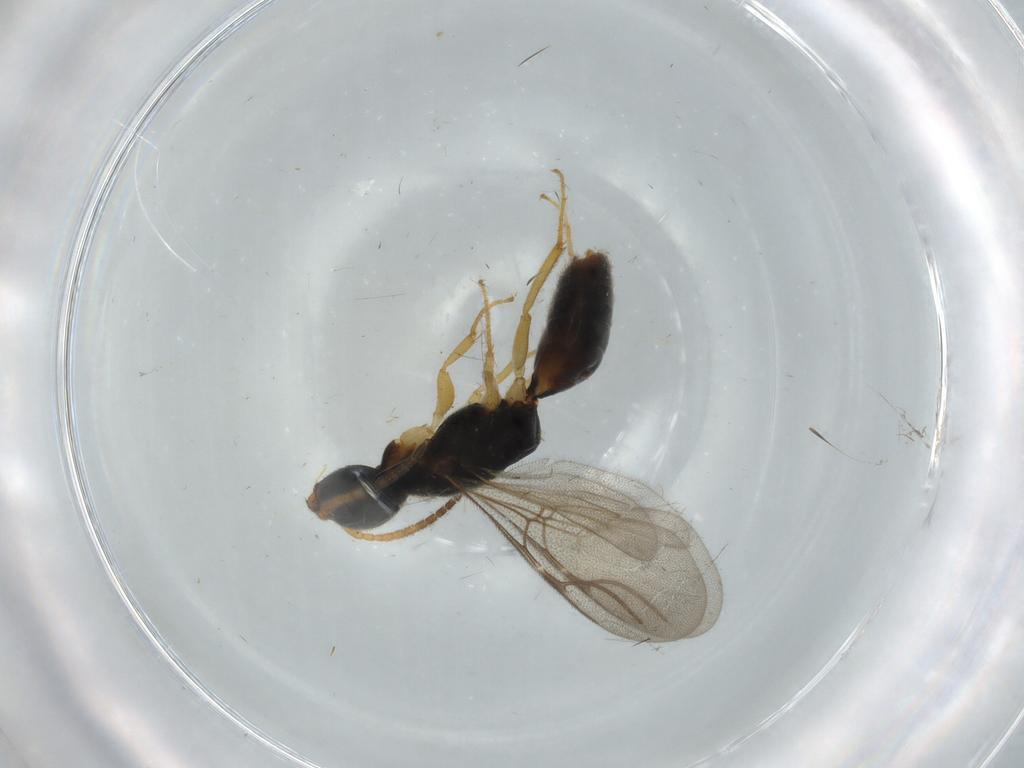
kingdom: Animalia
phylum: Arthropoda
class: Insecta
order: Hymenoptera
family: Bethylidae
